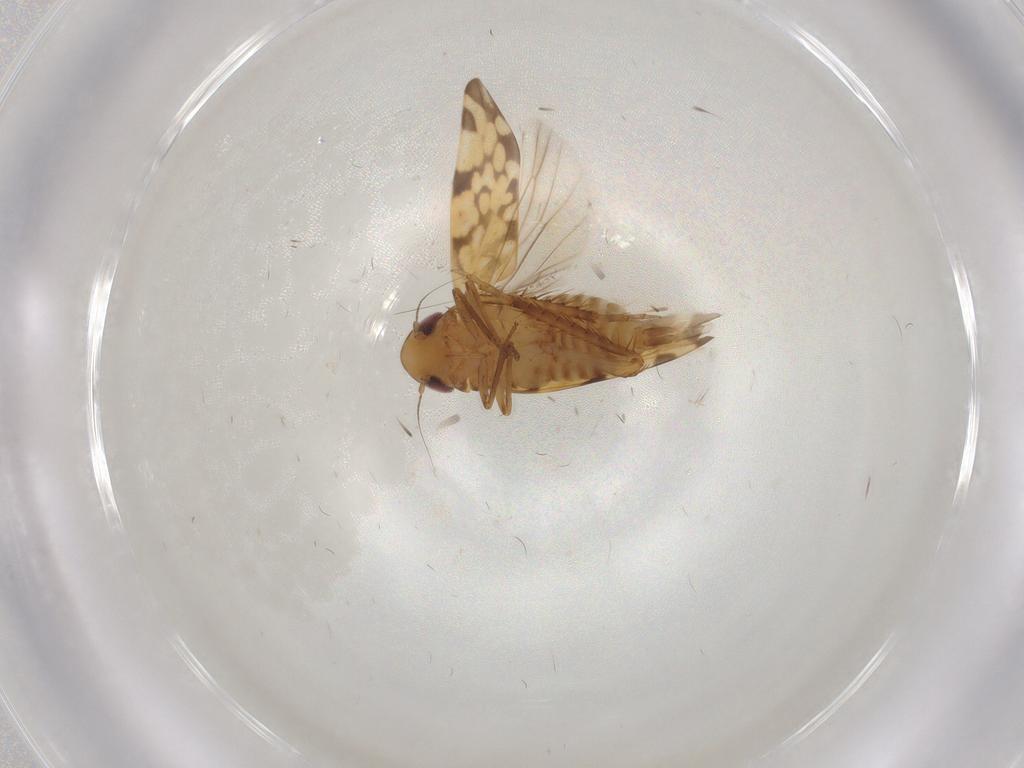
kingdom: Animalia
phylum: Arthropoda
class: Insecta
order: Hemiptera
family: Cicadellidae
